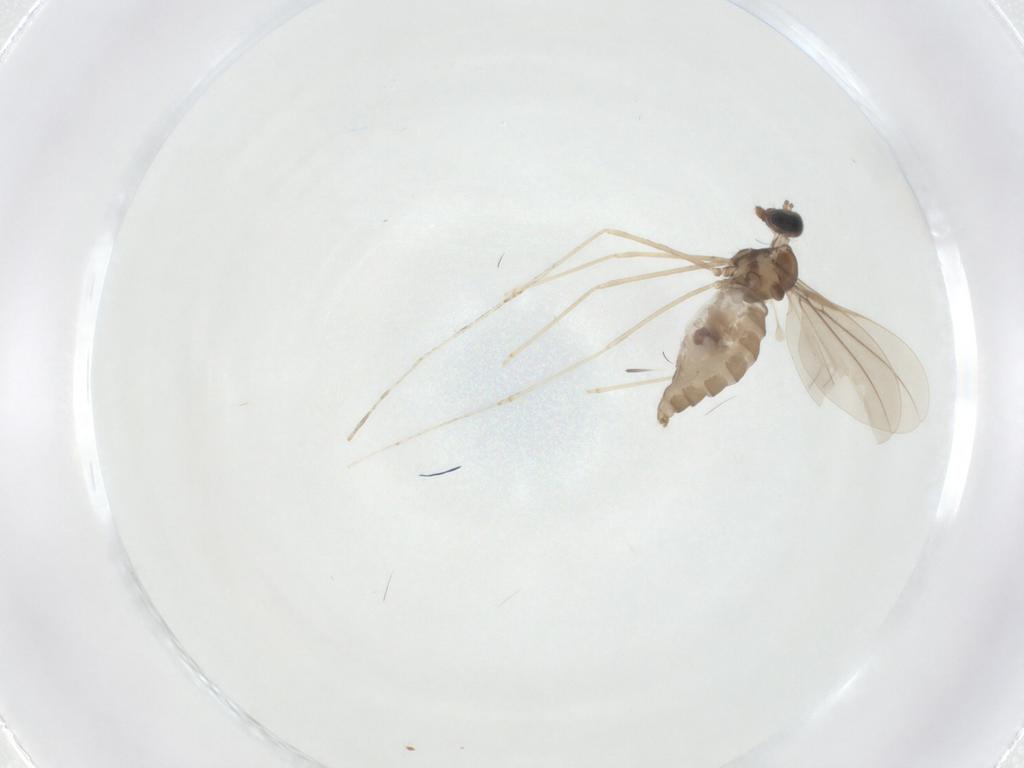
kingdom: Animalia
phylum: Arthropoda
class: Insecta
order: Diptera
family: Cecidomyiidae
